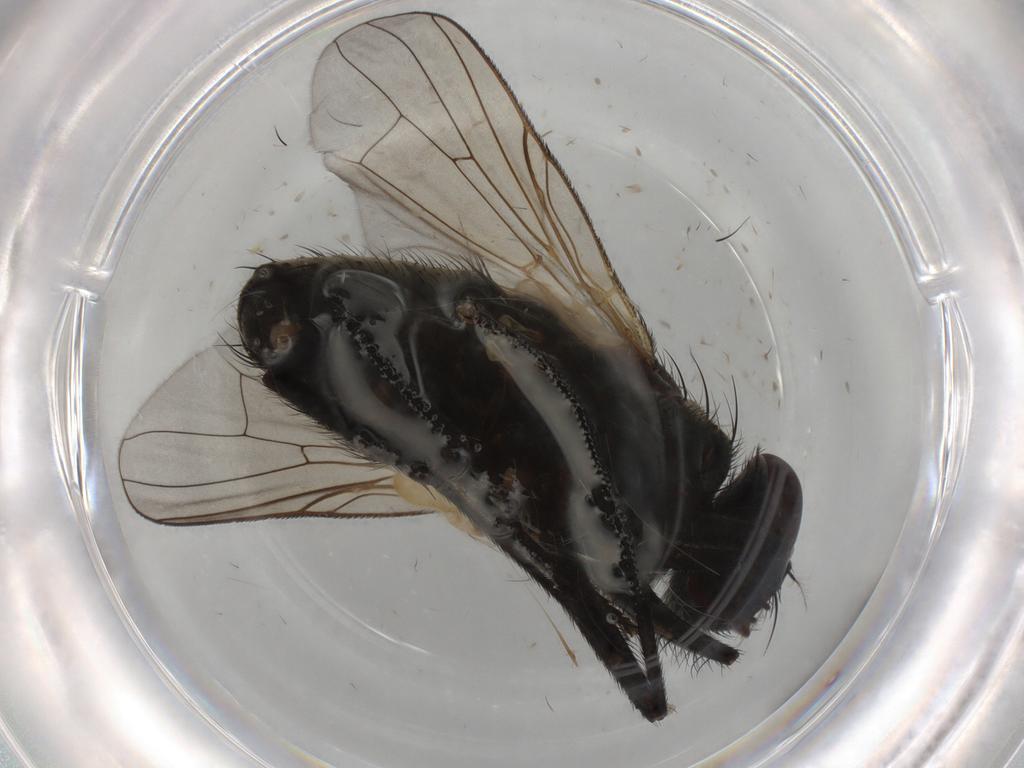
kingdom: Animalia
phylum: Arthropoda
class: Insecta
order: Diptera
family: Muscidae
